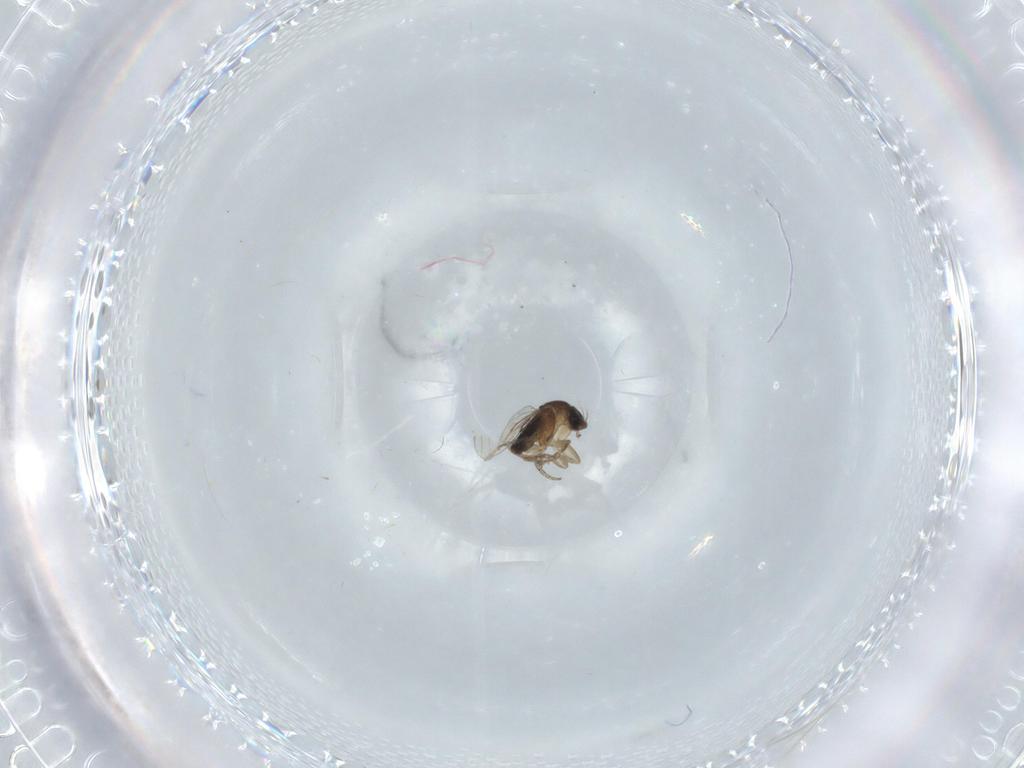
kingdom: Animalia
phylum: Arthropoda
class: Insecta
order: Diptera
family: Phoridae
